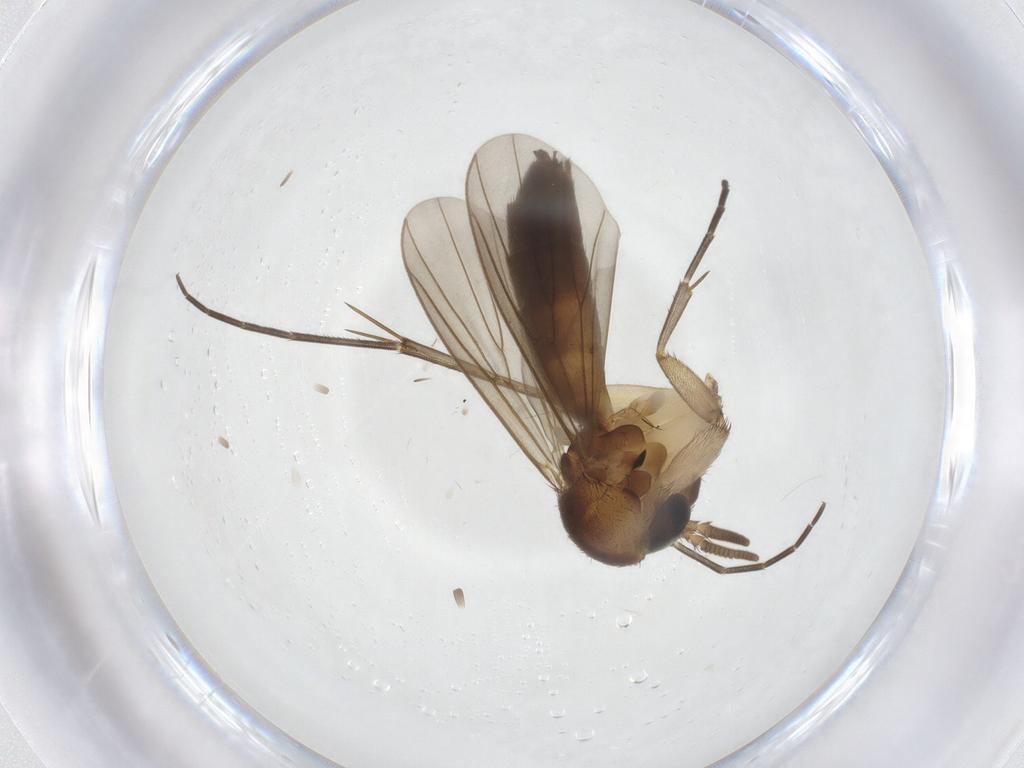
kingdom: Animalia
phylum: Arthropoda
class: Insecta
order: Diptera
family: Mycetophilidae
